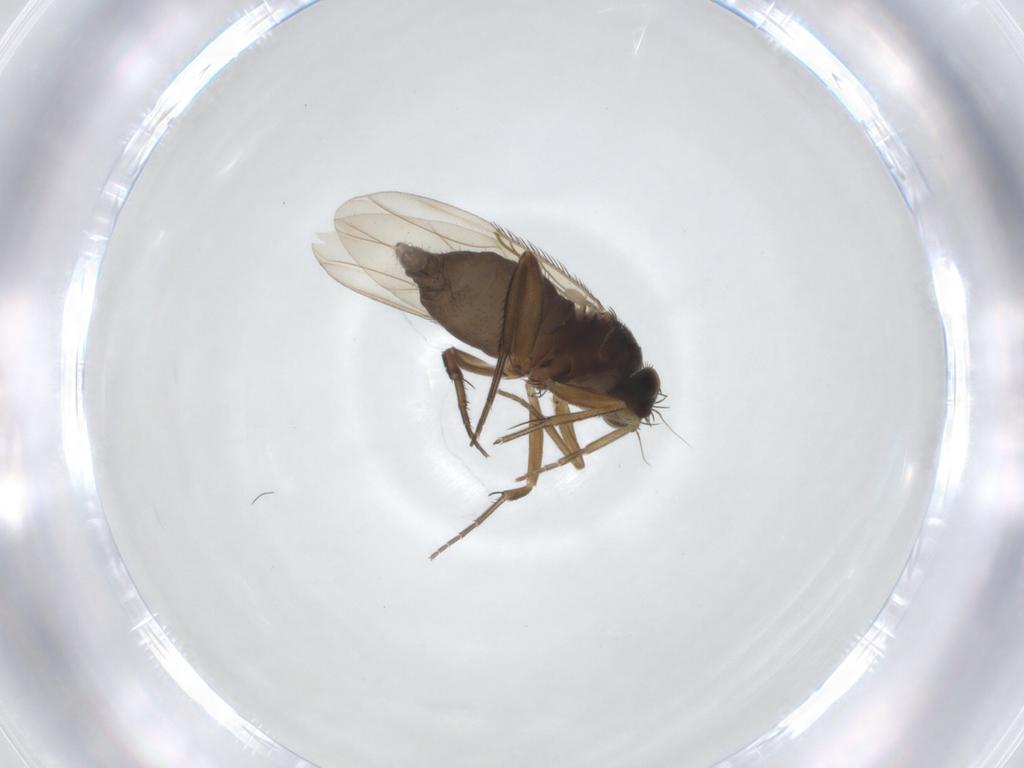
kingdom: Animalia
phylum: Arthropoda
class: Insecta
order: Diptera
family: Phoridae
